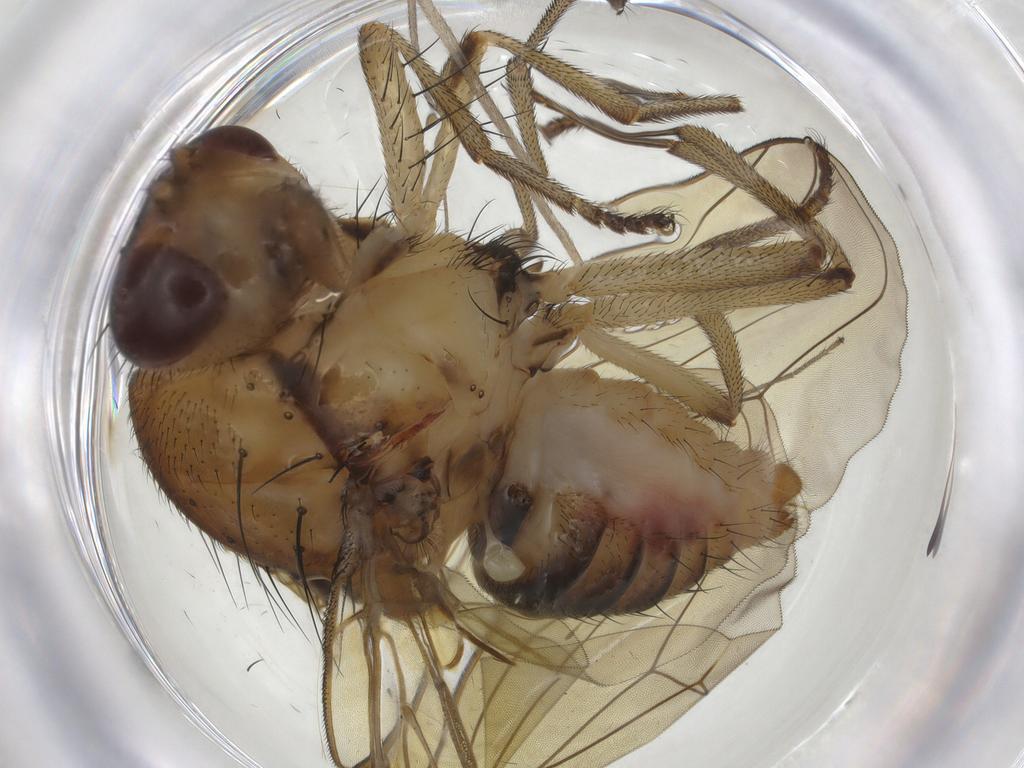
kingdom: Animalia
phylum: Arthropoda
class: Insecta
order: Diptera
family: Limoniidae
